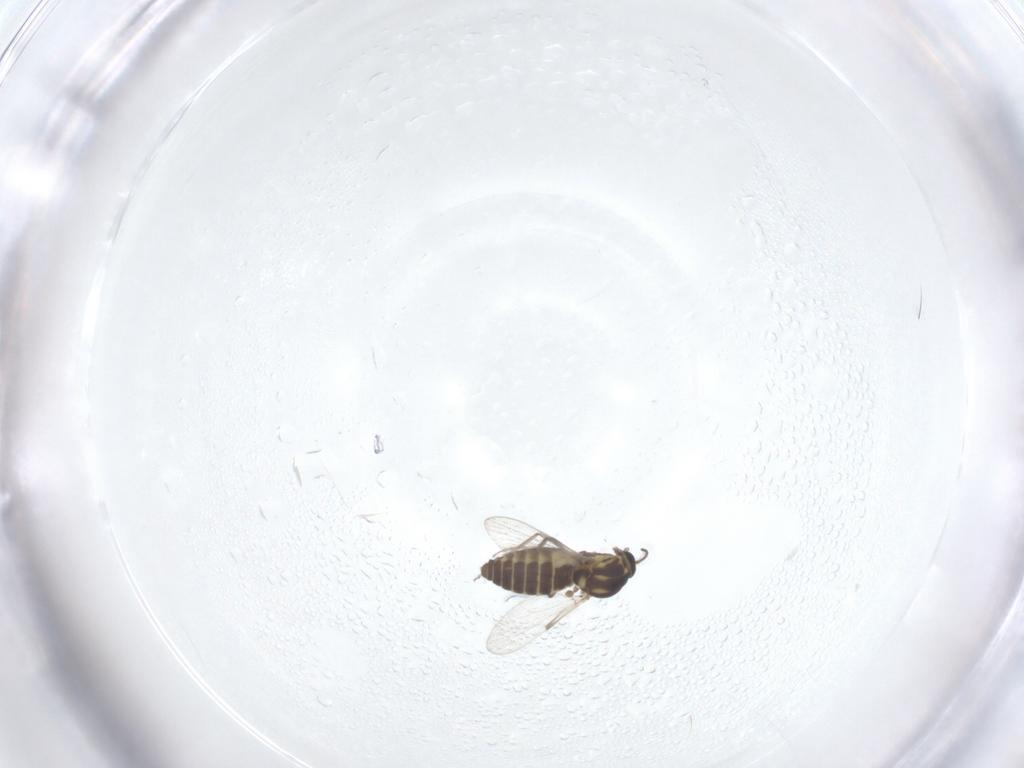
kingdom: Animalia
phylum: Arthropoda
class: Insecta
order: Diptera
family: Ceratopogonidae
